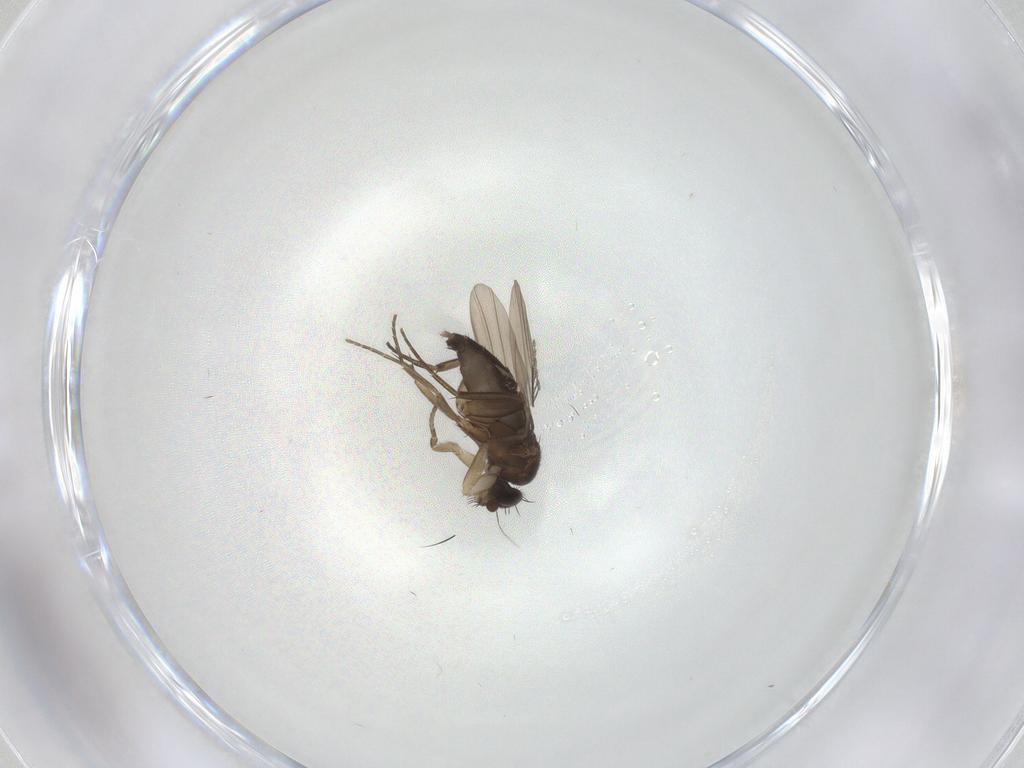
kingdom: Animalia
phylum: Arthropoda
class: Insecta
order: Diptera
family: Phoridae
